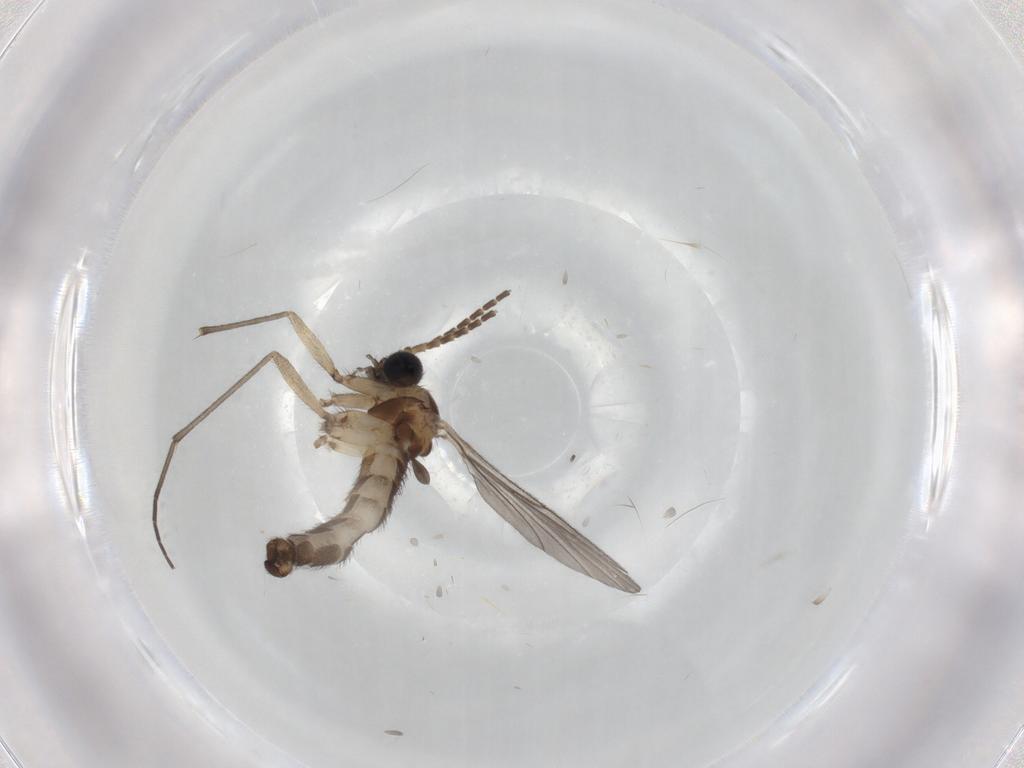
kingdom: Animalia
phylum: Arthropoda
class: Insecta
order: Diptera
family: Sciaridae
